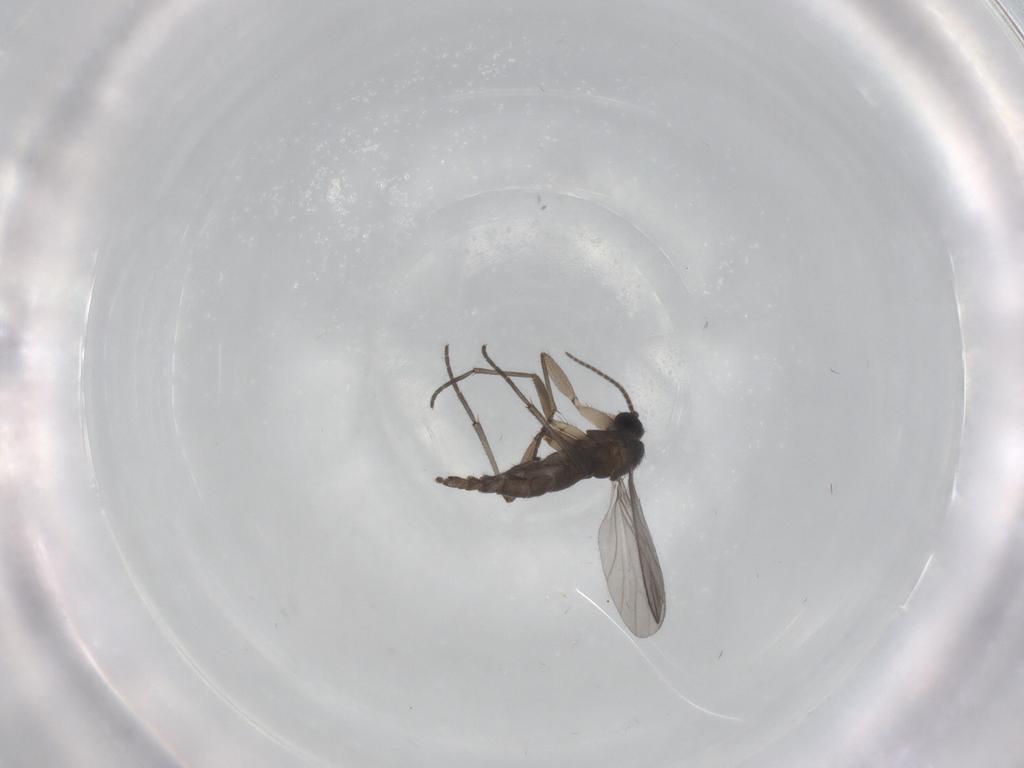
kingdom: Animalia
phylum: Arthropoda
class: Insecta
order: Diptera
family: Sciaridae
